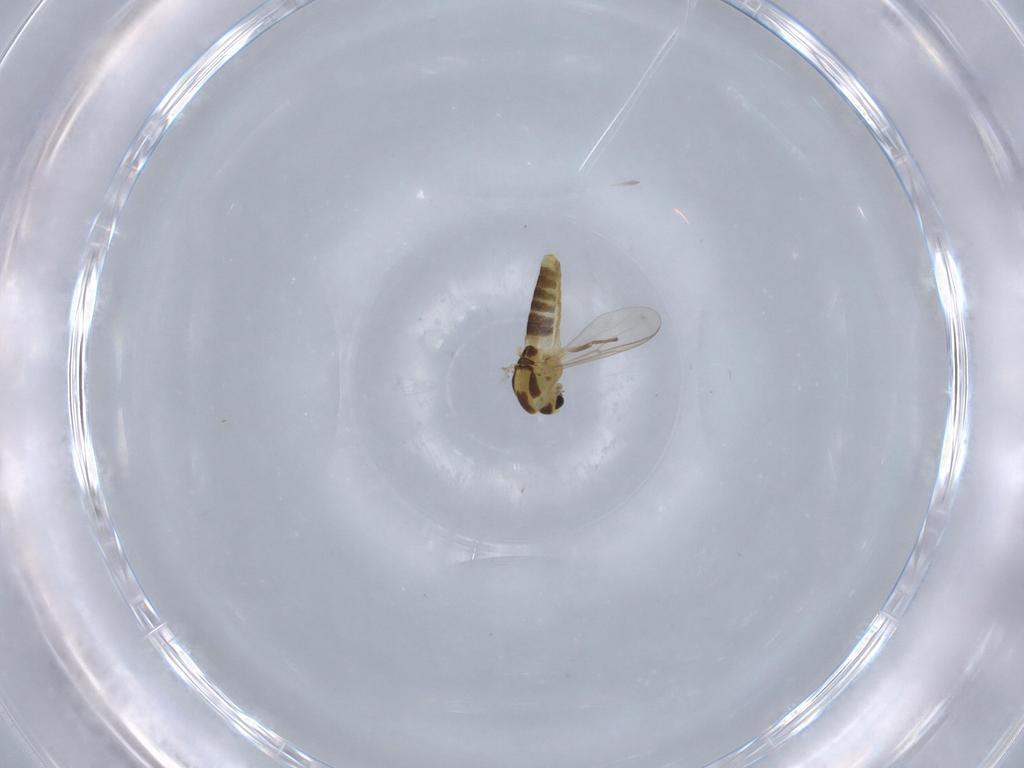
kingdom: Animalia
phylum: Arthropoda
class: Insecta
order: Diptera
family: Chironomidae
